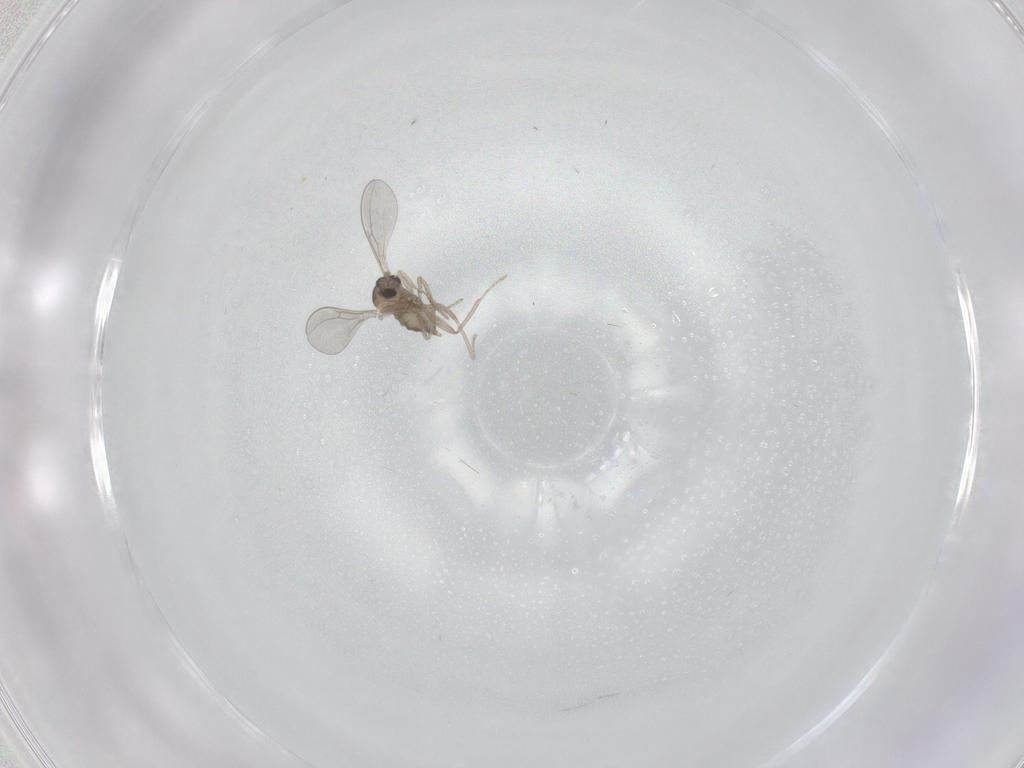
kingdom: Animalia
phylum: Arthropoda
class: Insecta
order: Diptera
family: Cecidomyiidae
